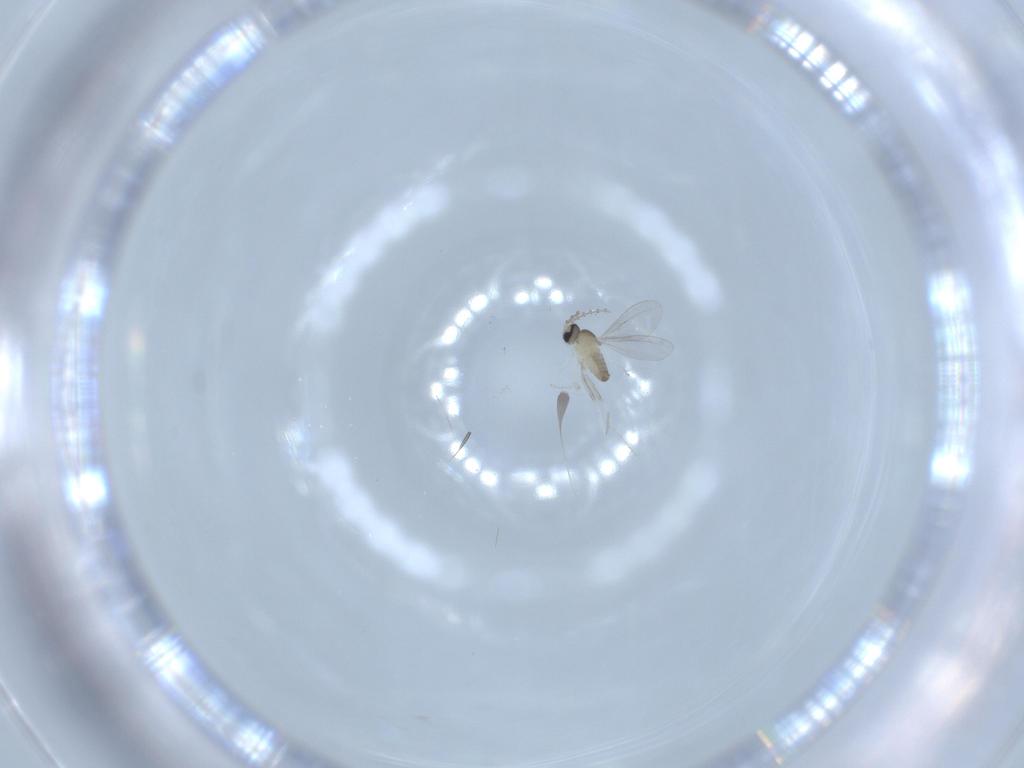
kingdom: Animalia
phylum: Arthropoda
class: Insecta
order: Diptera
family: Cecidomyiidae
